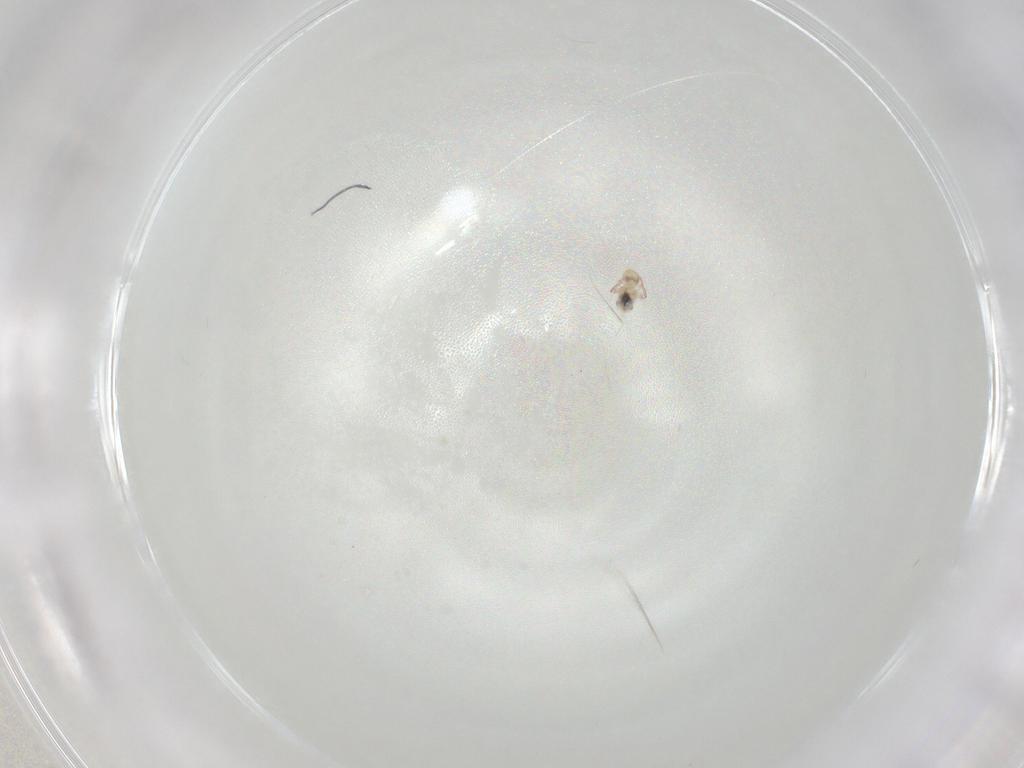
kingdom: Animalia
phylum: Arthropoda
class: Collembola
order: Symphypleona
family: Bourletiellidae
